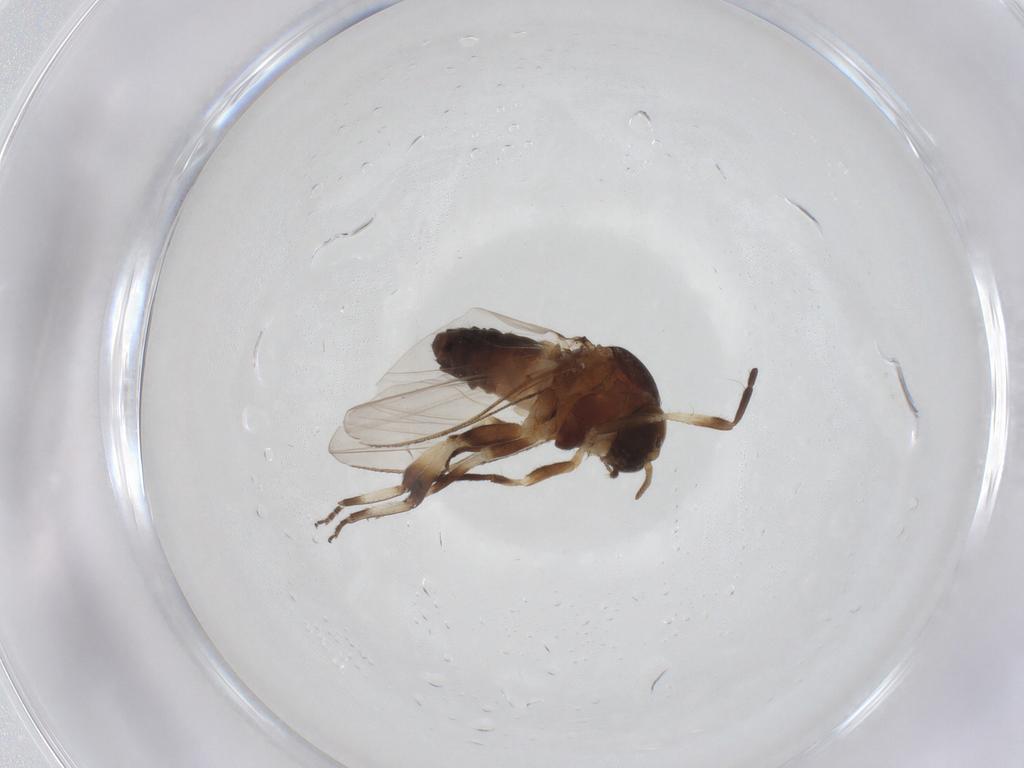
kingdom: Animalia
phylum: Arthropoda
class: Insecta
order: Diptera
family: Simuliidae
